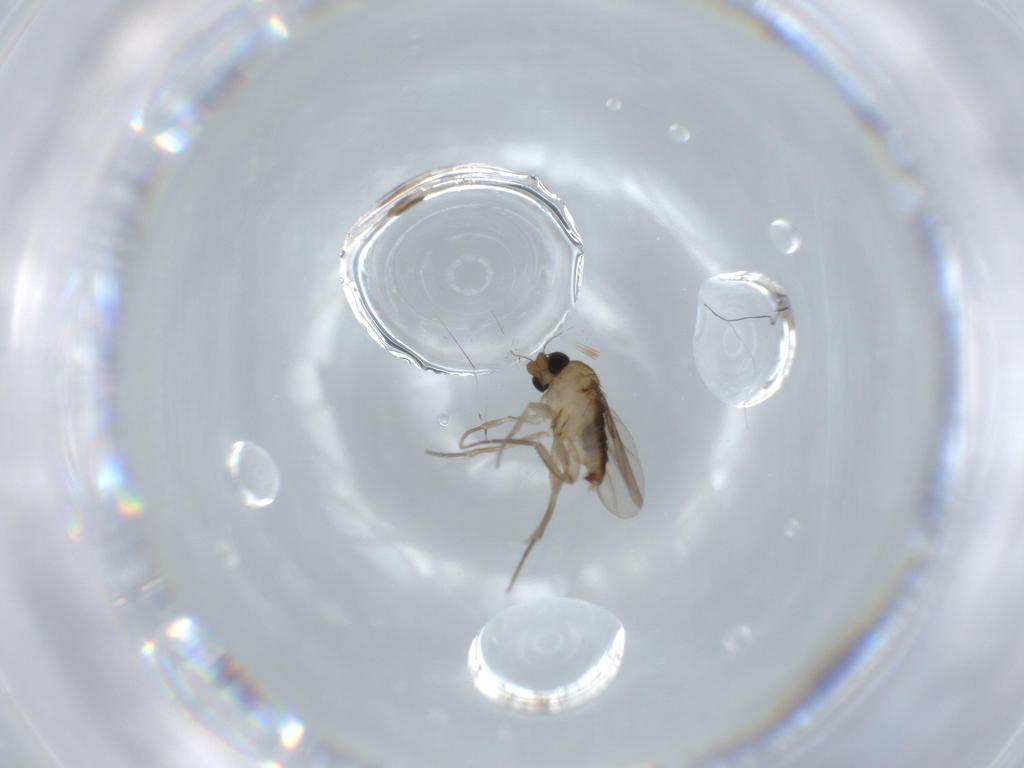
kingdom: Animalia
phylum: Arthropoda
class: Insecta
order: Diptera
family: Phoridae
